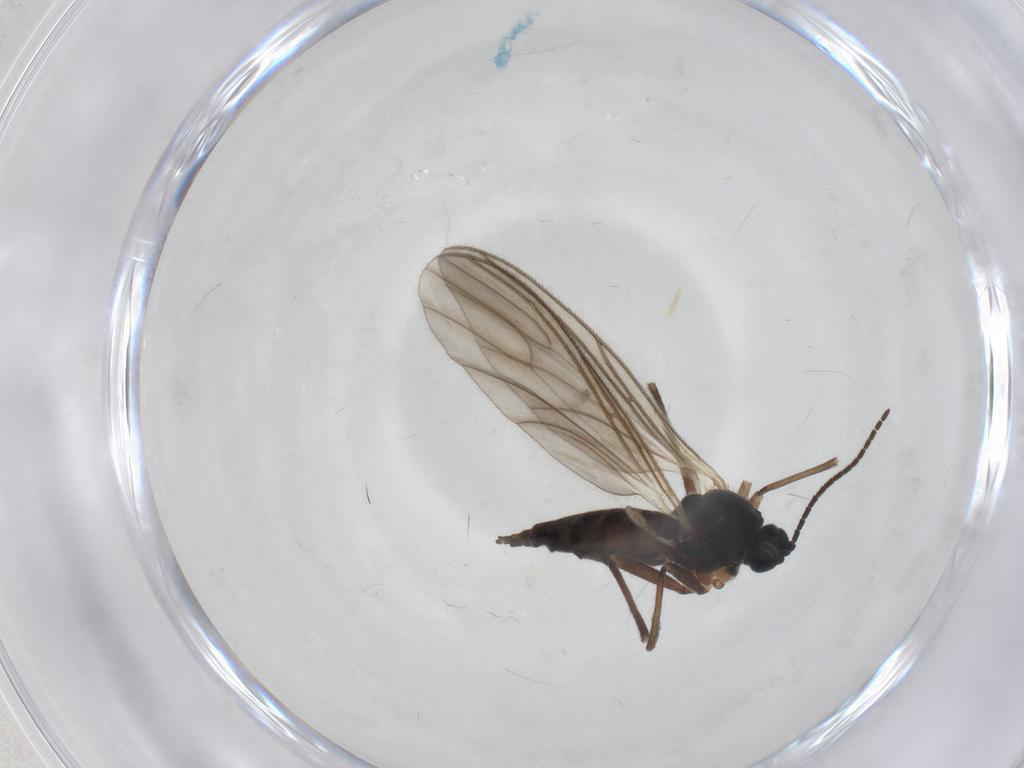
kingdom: Animalia
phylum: Arthropoda
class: Insecta
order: Diptera
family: Sciaridae
